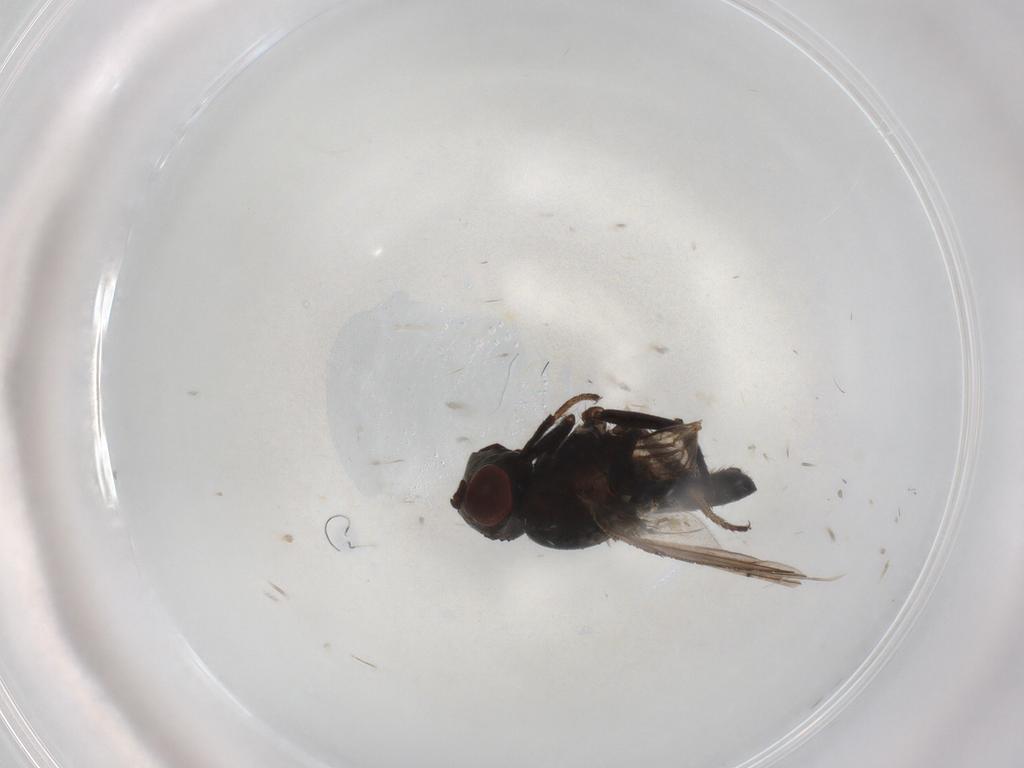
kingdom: Animalia
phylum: Arthropoda
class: Insecta
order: Diptera
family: Ephydridae
